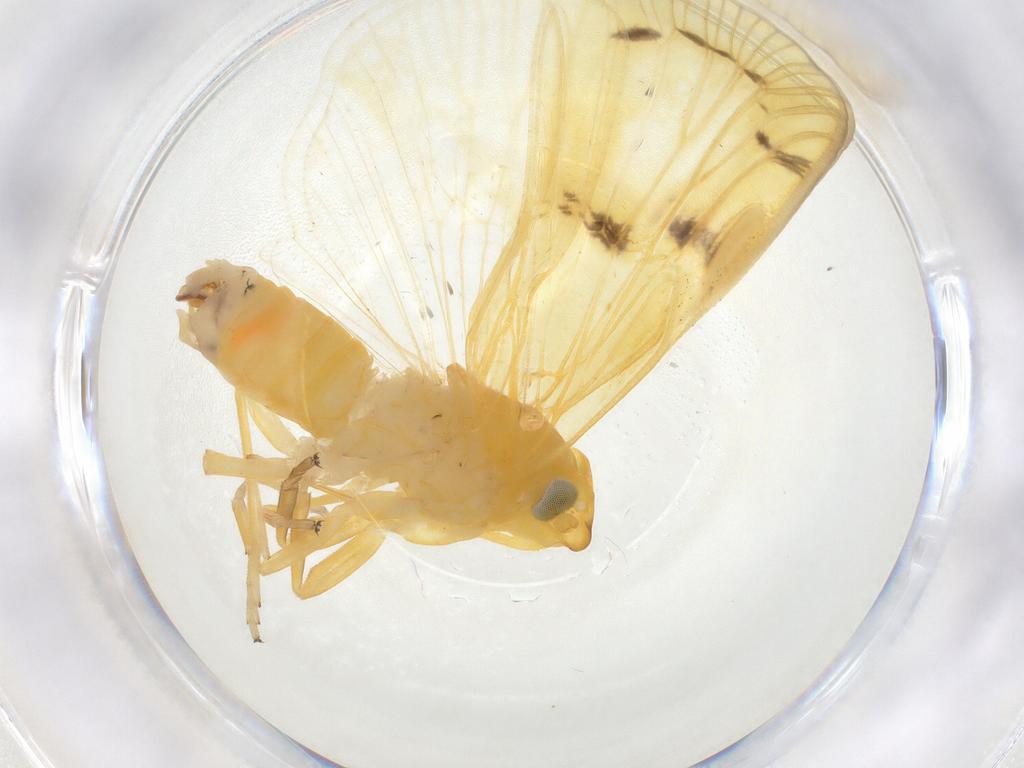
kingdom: Animalia
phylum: Arthropoda
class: Insecta
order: Hemiptera
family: Cixiidae
